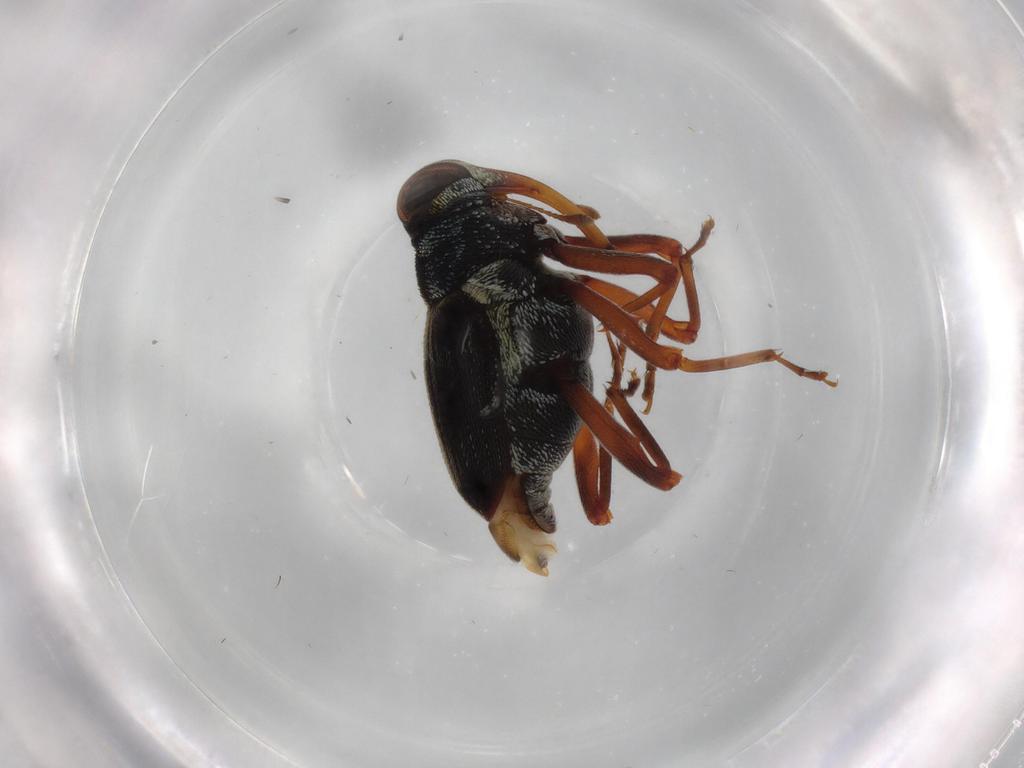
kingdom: Animalia
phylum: Arthropoda
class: Insecta
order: Coleoptera
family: Curculionidae
